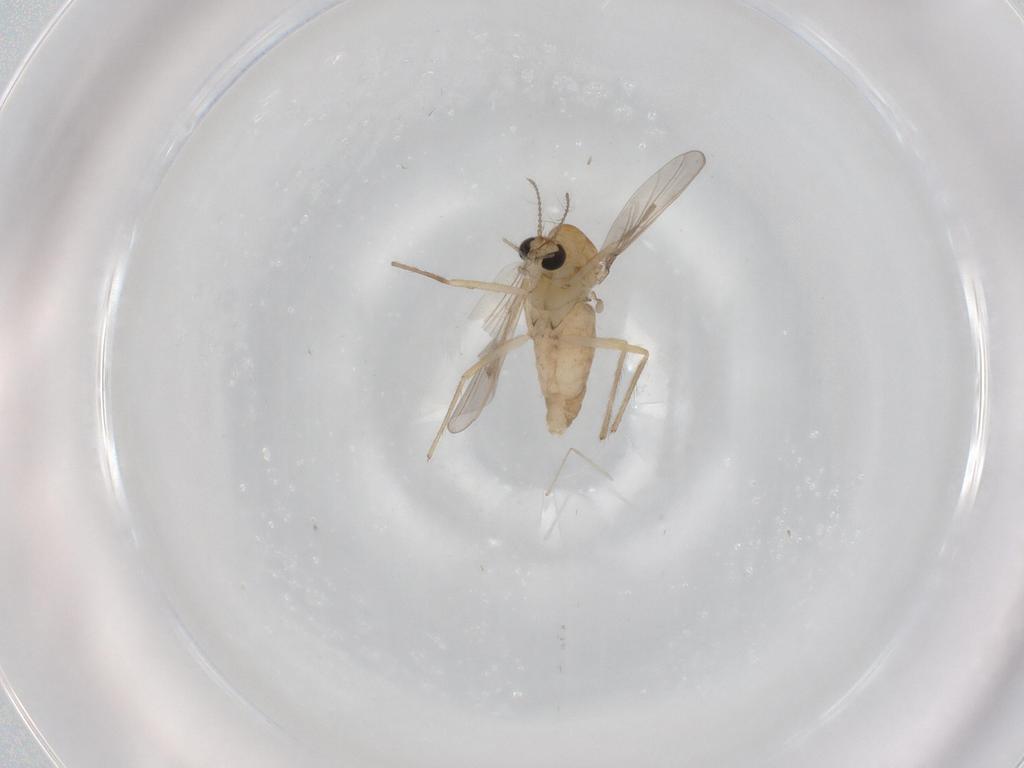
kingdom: Animalia
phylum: Arthropoda
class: Insecta
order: Diptera
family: Chironomidae
